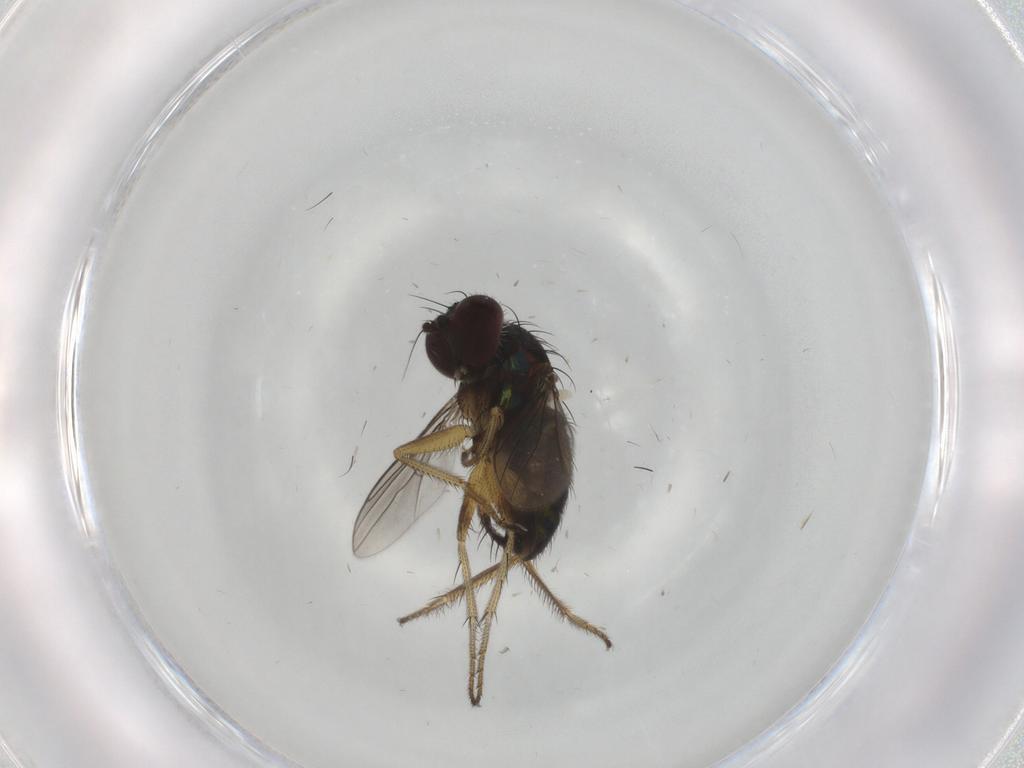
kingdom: Animalia
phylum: Arthropoda
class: Insecta
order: Diptera
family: Dolichopodidae
